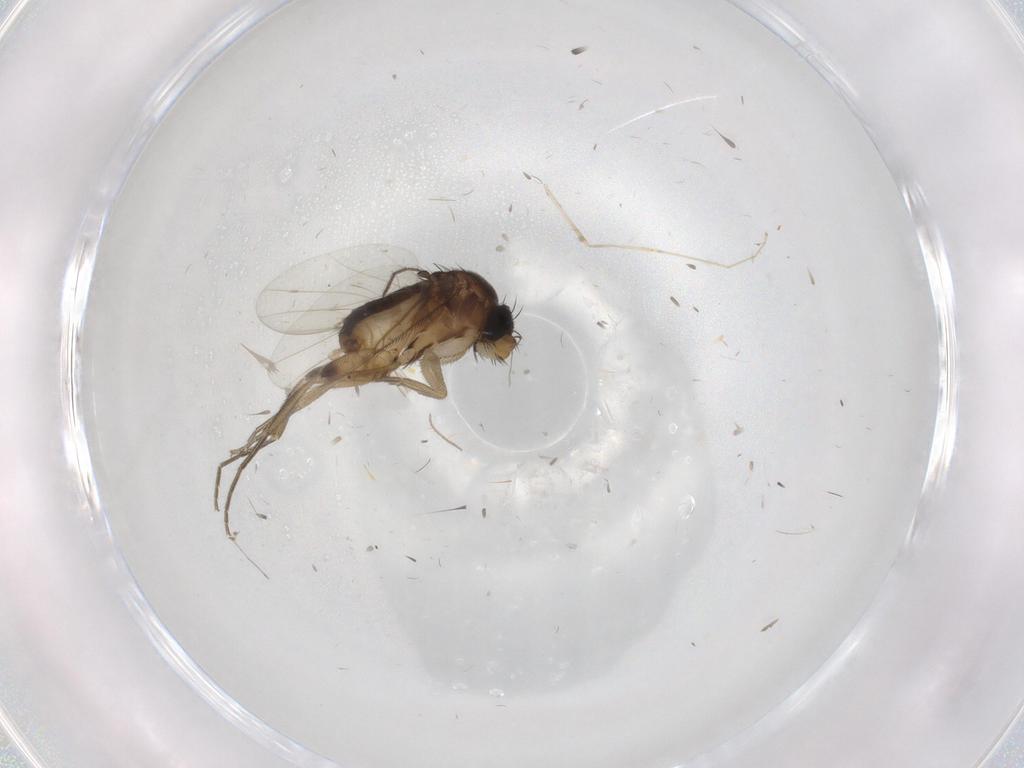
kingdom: Animalia
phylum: Arthropoda
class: Insecta
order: Diptera
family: Cecidomyiidae
